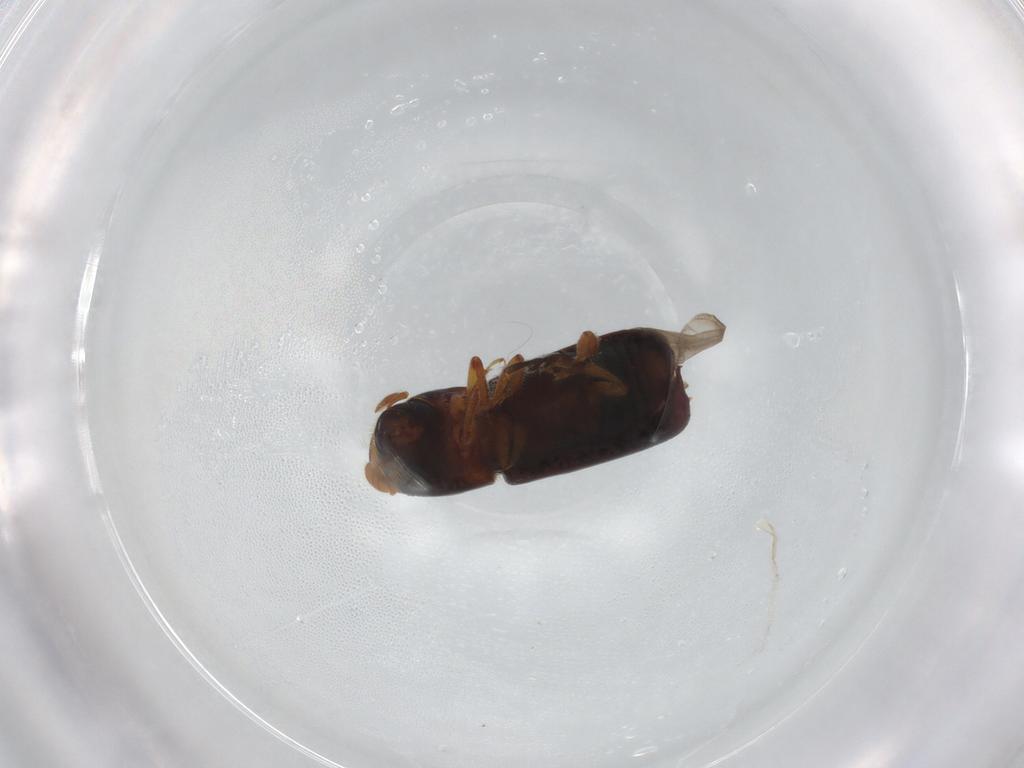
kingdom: Animalia
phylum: Arthropoda
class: Insecta
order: Coleoptera
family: Curculionidae
